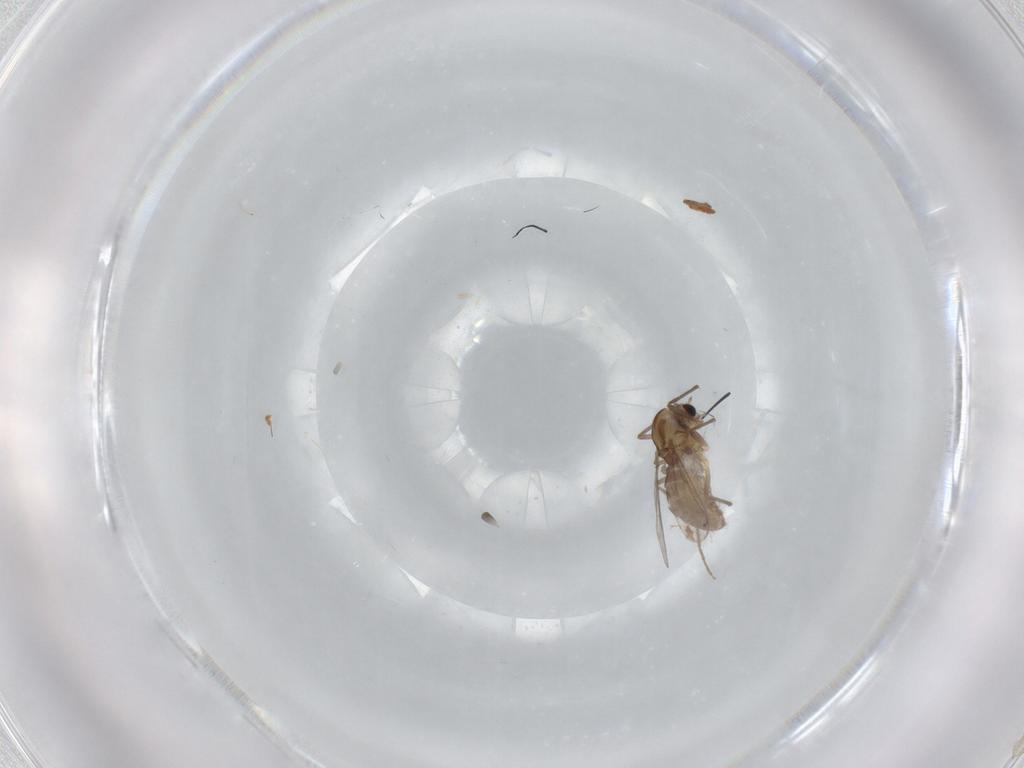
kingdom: Animalia
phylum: Arthropoda
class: Insecta
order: Diptera
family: Chironomidae
